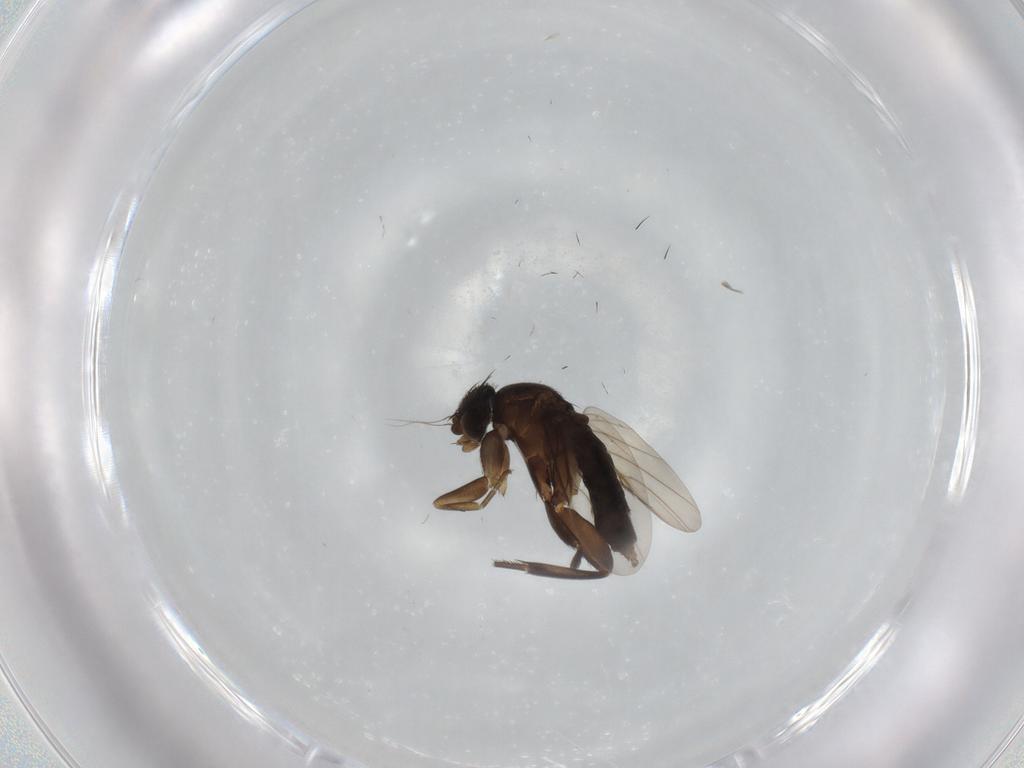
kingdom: Animalia
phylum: Arthropoda
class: Insecta
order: Diptera
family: Phoridae
